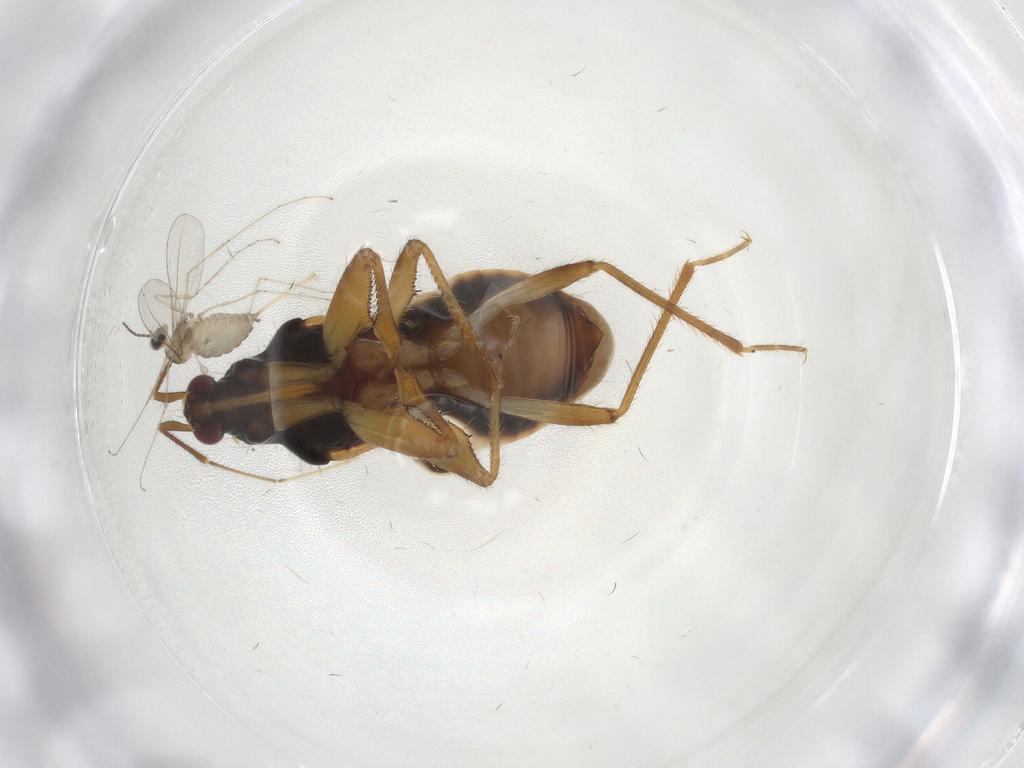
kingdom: Animalia
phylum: Arthropoda
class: Insecta
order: Diptera
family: Cecidomyiidae
